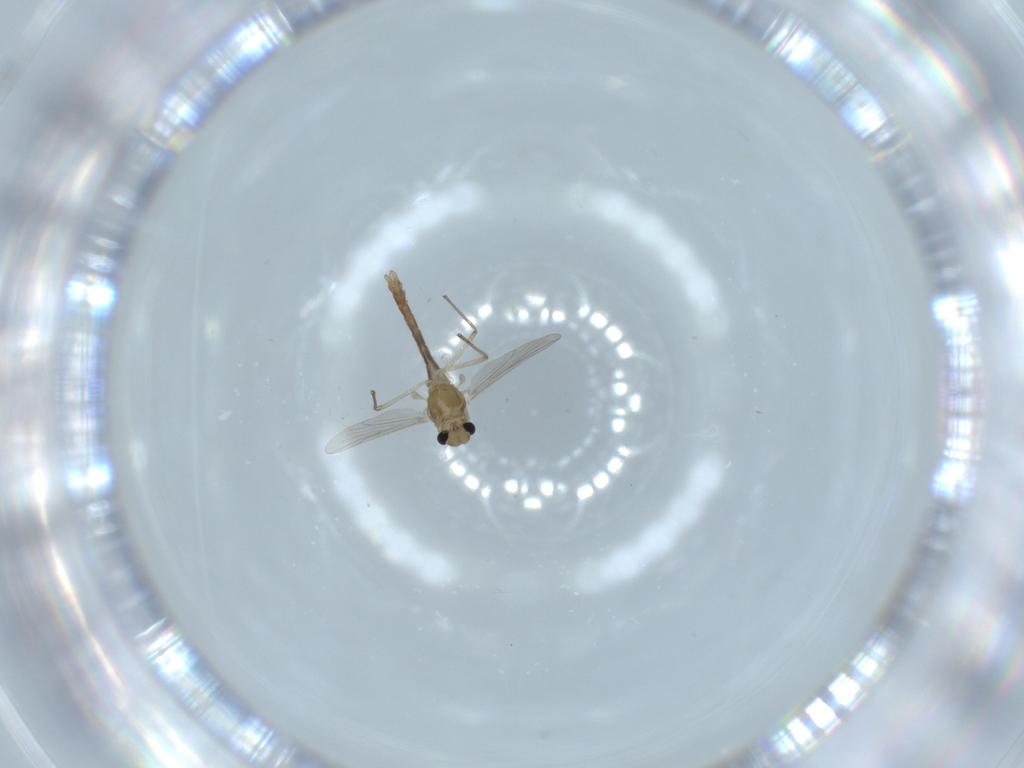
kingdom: Animalia
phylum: Arthropoda
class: Insecta
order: Diptera
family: Chironomidae
